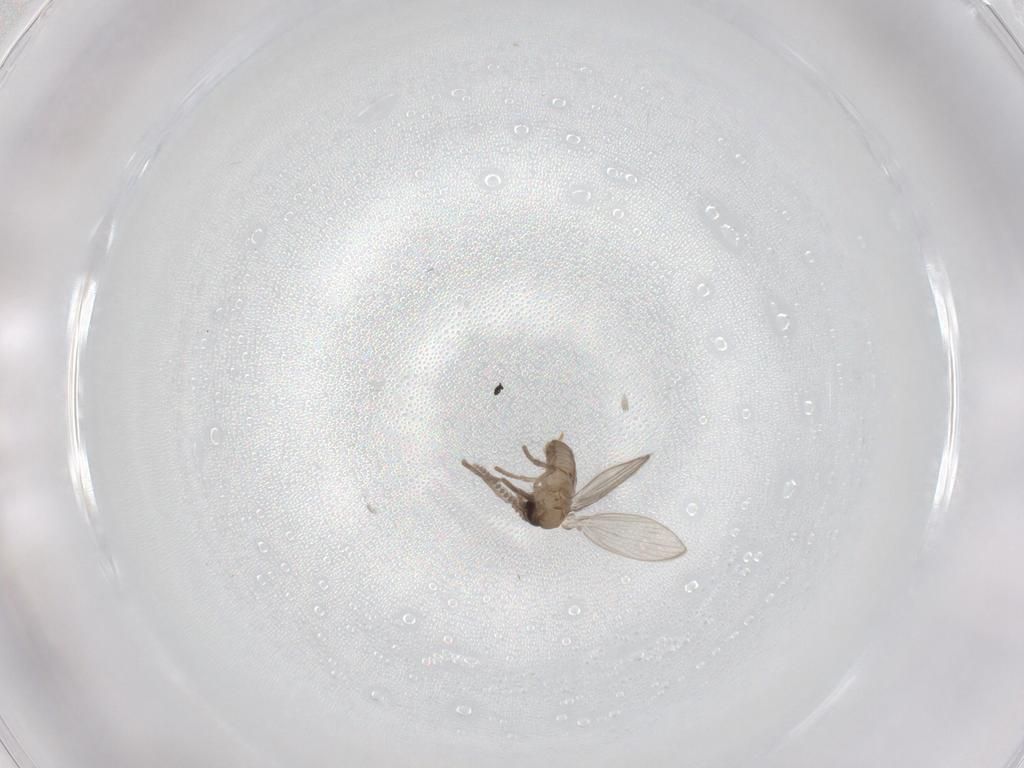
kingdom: Animalia
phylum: Arthropoda
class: Insecta
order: Diptera
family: Psychodidae
